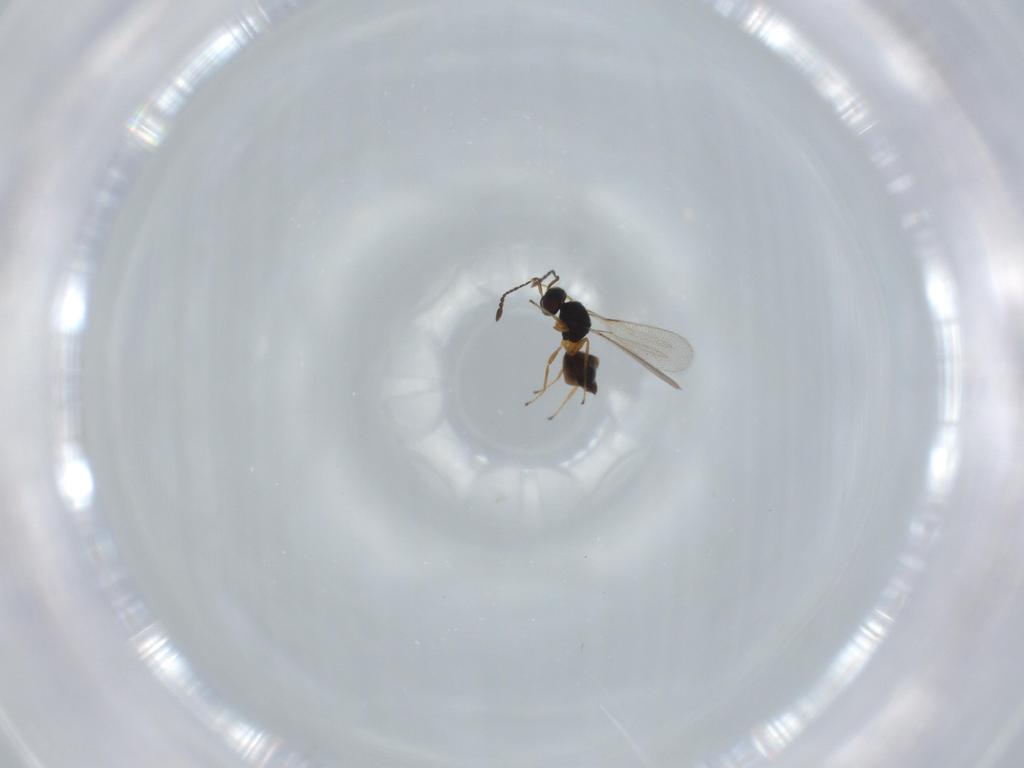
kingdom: Animalia
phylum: Arthropoda
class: Insecta
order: Hymenoptera
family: Mymaridae
